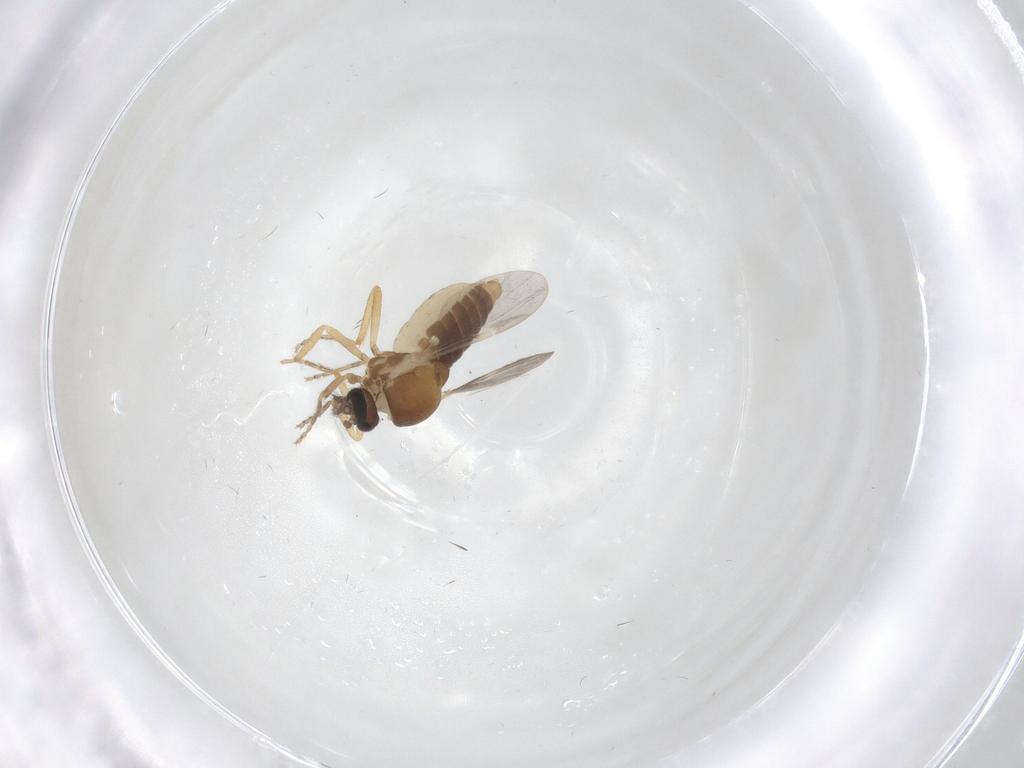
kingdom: Animalia
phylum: Arthropoda
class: Insecta
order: Diptera
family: Ceratopogonidae
